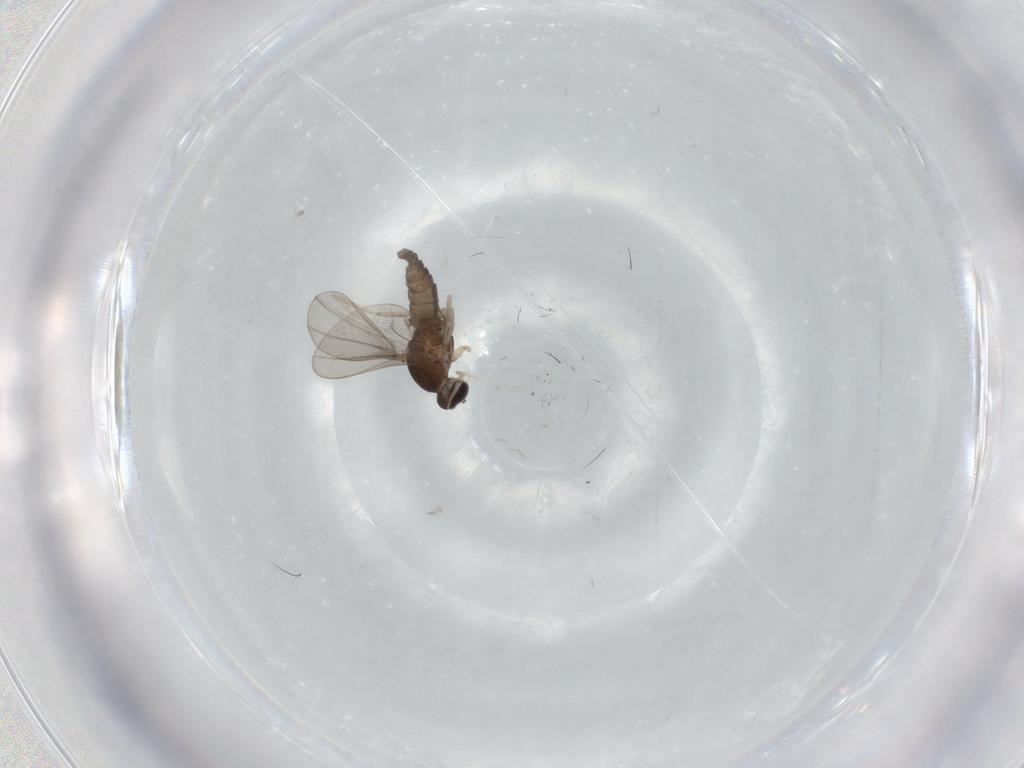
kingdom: Animalia
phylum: Arthropoda
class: Insecta
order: Diptera
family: Cecidomyiidae
